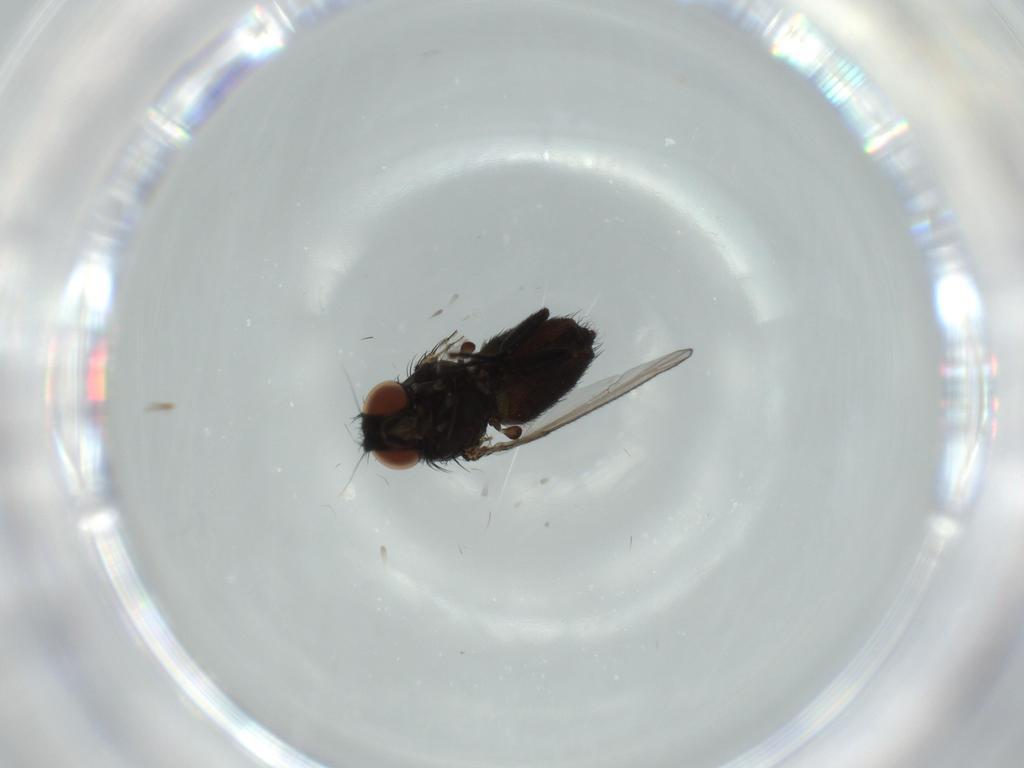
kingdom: Animalia
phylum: Arthropoda
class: Insecta
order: Diptera
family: Milichiidae
